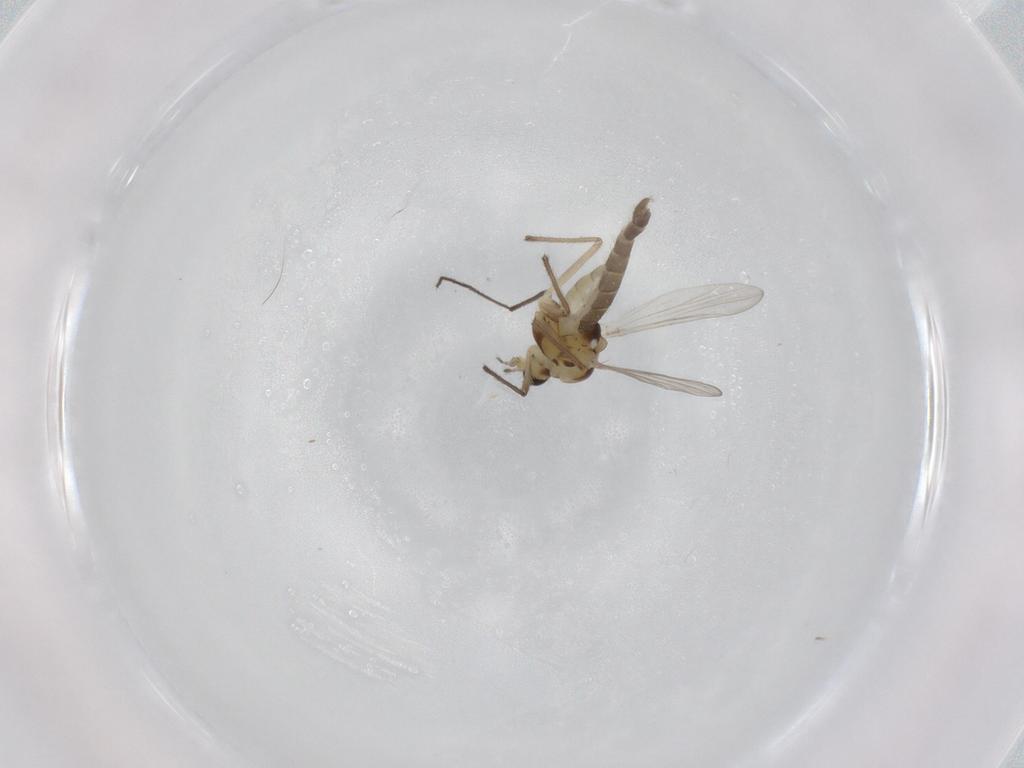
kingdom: Animalia
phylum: Arthropoda
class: Insecta
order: Diptera
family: Chironomidae
